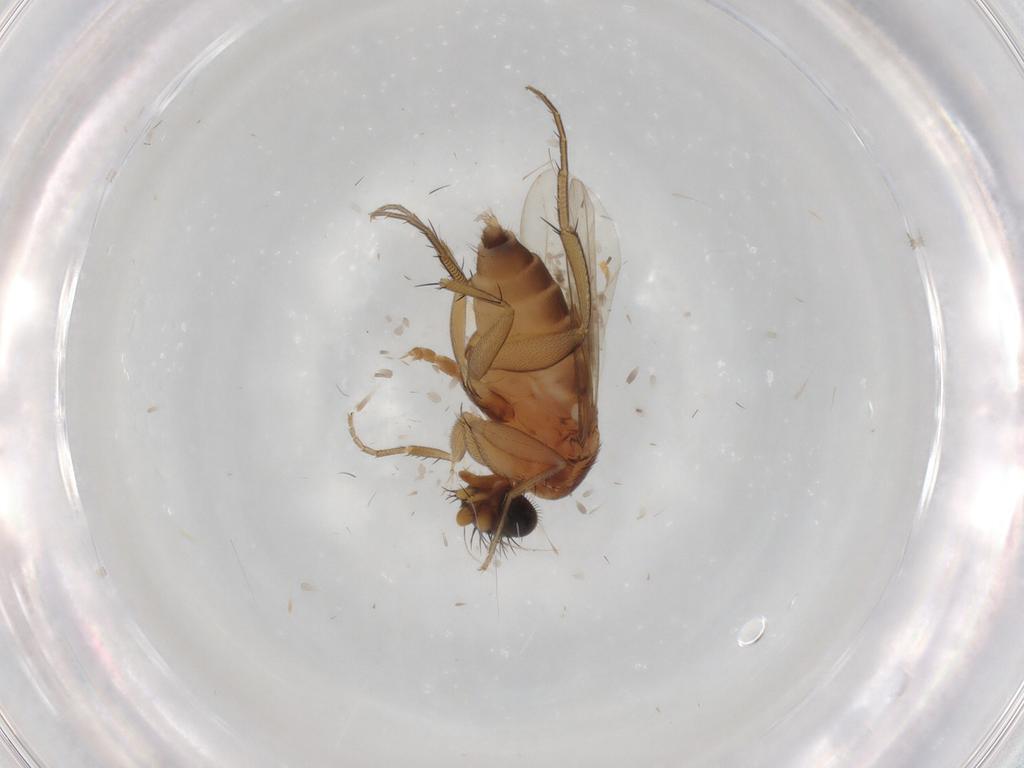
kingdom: Animalia
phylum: Arthropoda
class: Insecta
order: Diptera
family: Chironomidae
